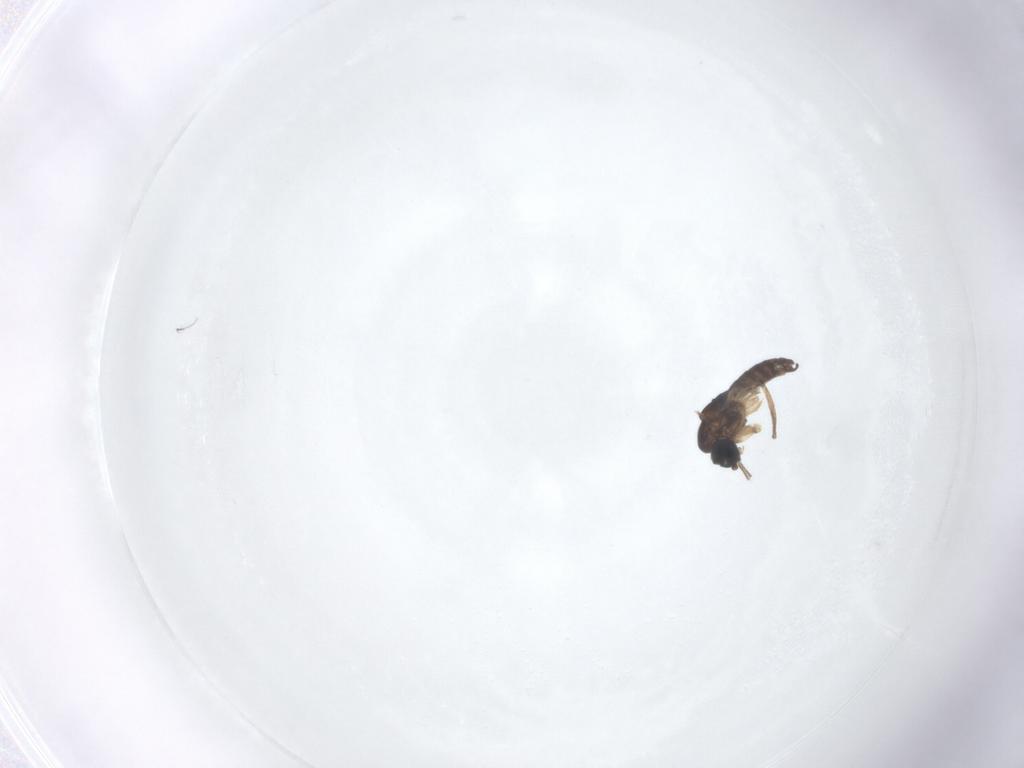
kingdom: Animalia
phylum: Arthropoda
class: Insecta
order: Diptera
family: Sciaridae
